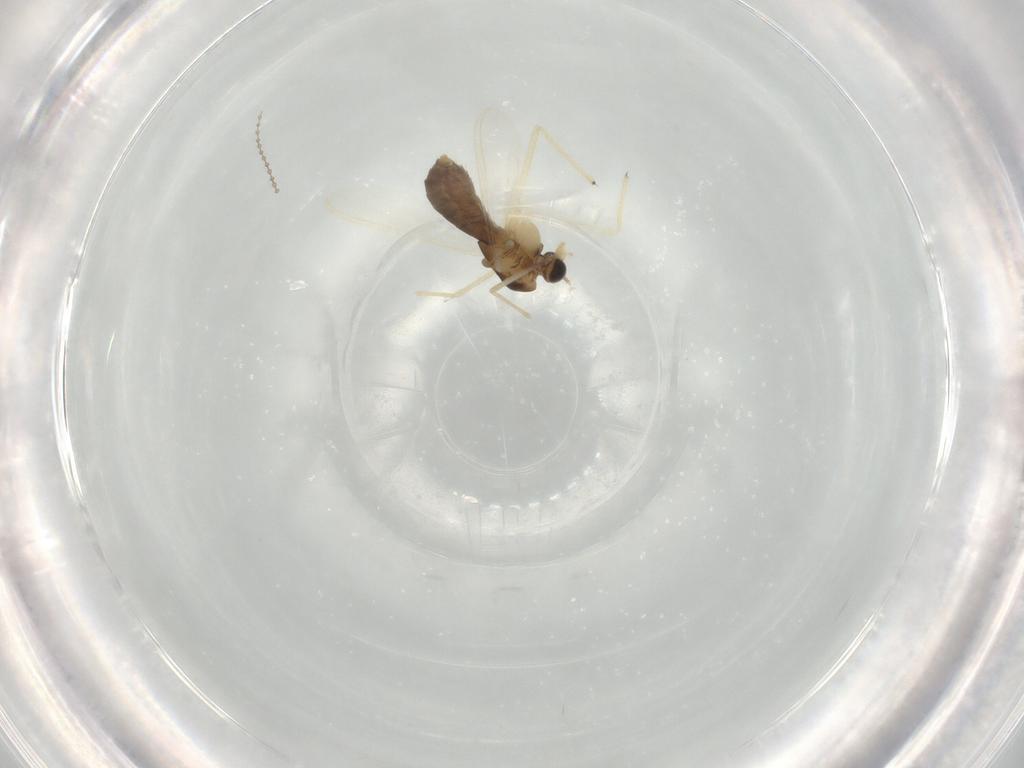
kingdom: Animalia
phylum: Arthropoda
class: Insecta
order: Diptera
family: Chironomidae
